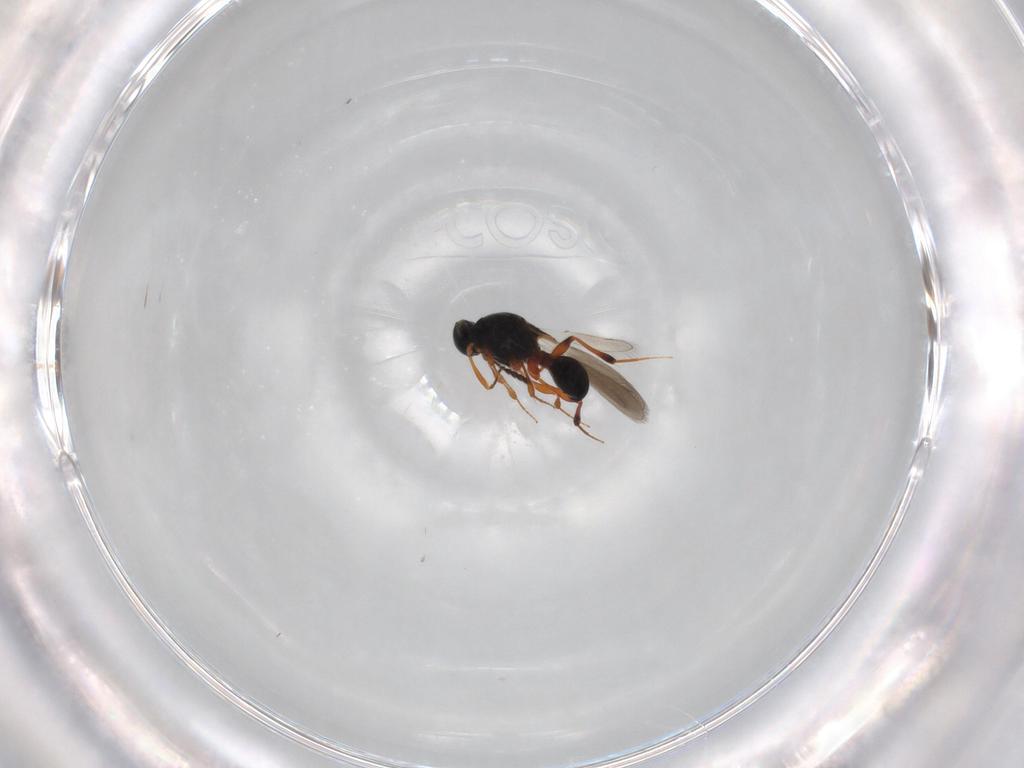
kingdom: Animalia
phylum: Arthropoda
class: Insecta
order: Hymenoptera
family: Platygastridae
